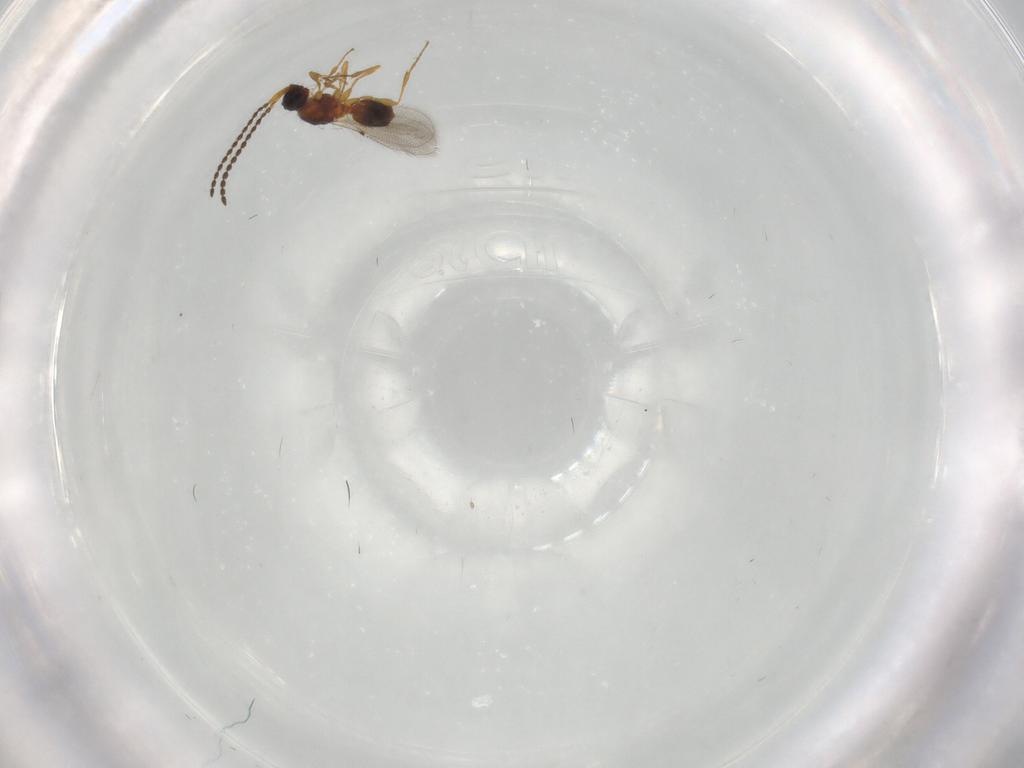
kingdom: Animalia
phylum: Arthropoda
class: Insecta
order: Hymenoptera
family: Diapriidae
